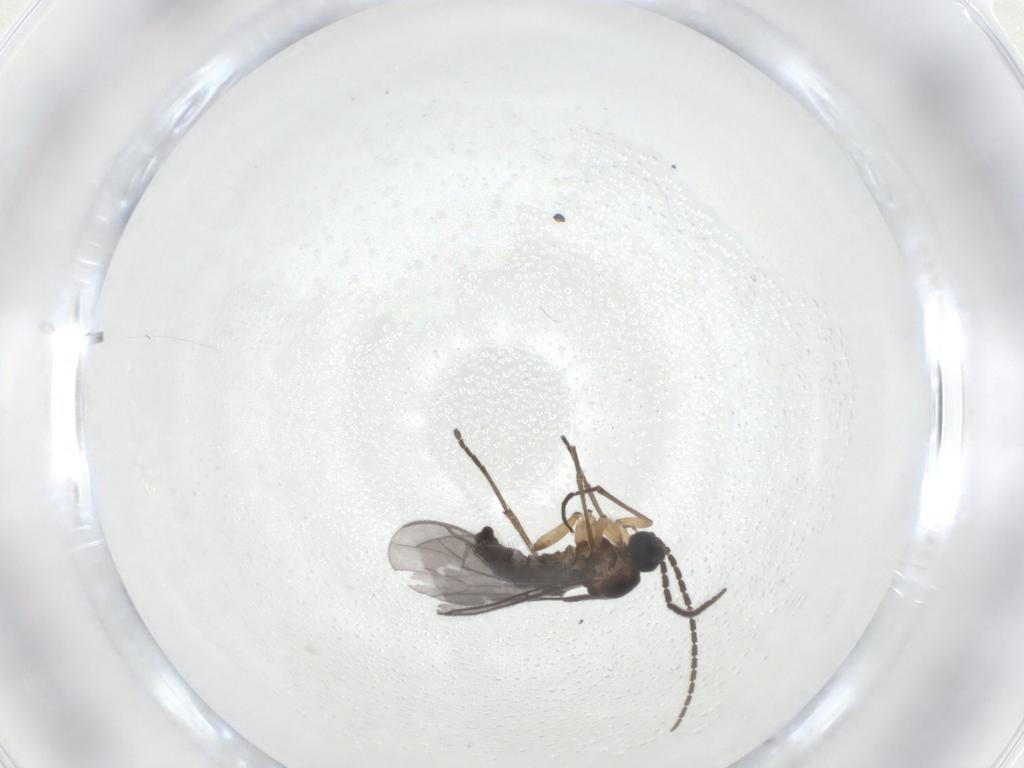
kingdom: Animalia
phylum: Arthropoda
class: Insecta
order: Diptera
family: Sciaridae
